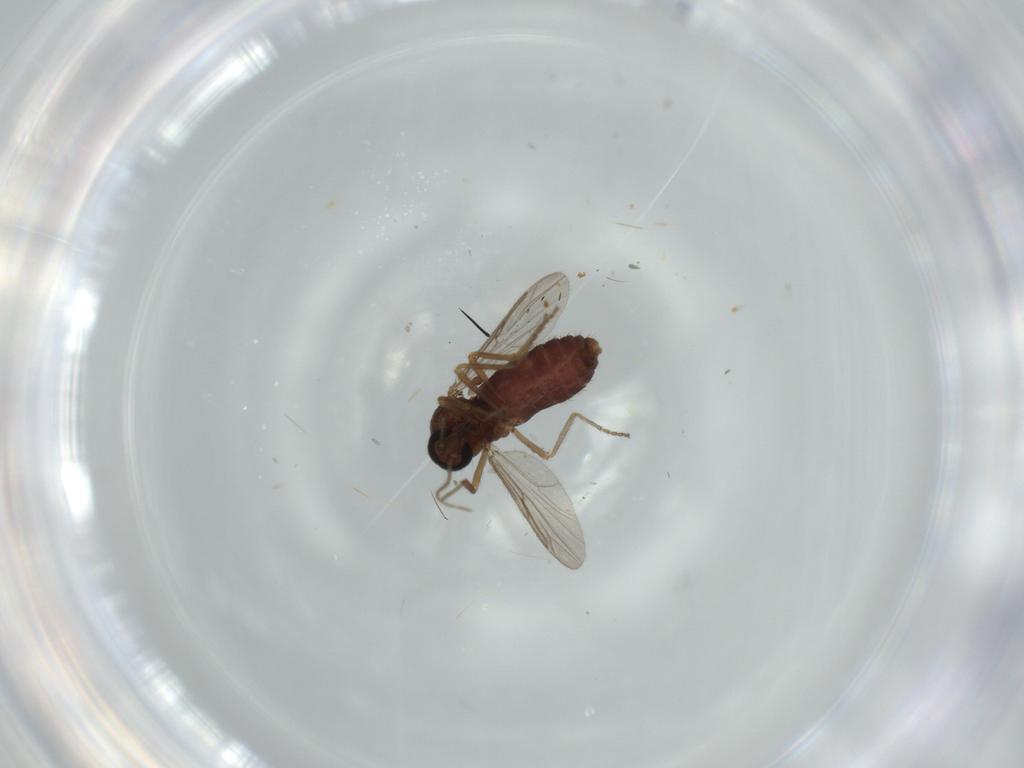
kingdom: Animalia
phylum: Arthropoda
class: Insecta
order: Diptera
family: Ceratopogonidae
